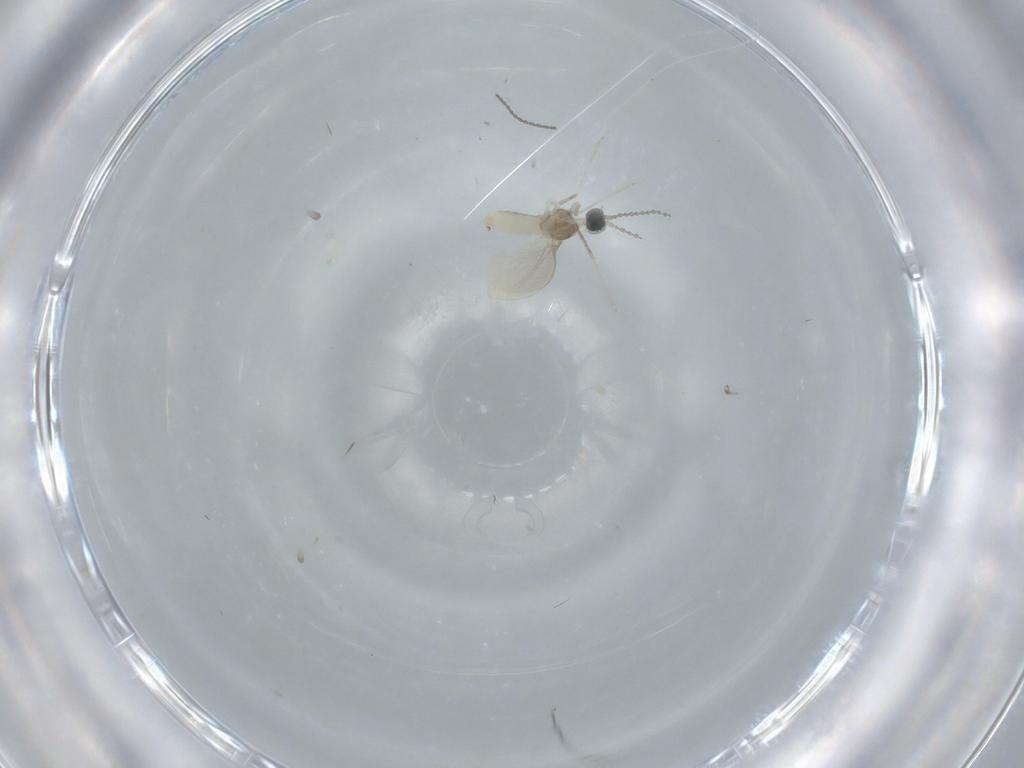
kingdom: Animalia
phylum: Arthropoda
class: Insecta
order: Diptera
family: Cecidomyiidae
